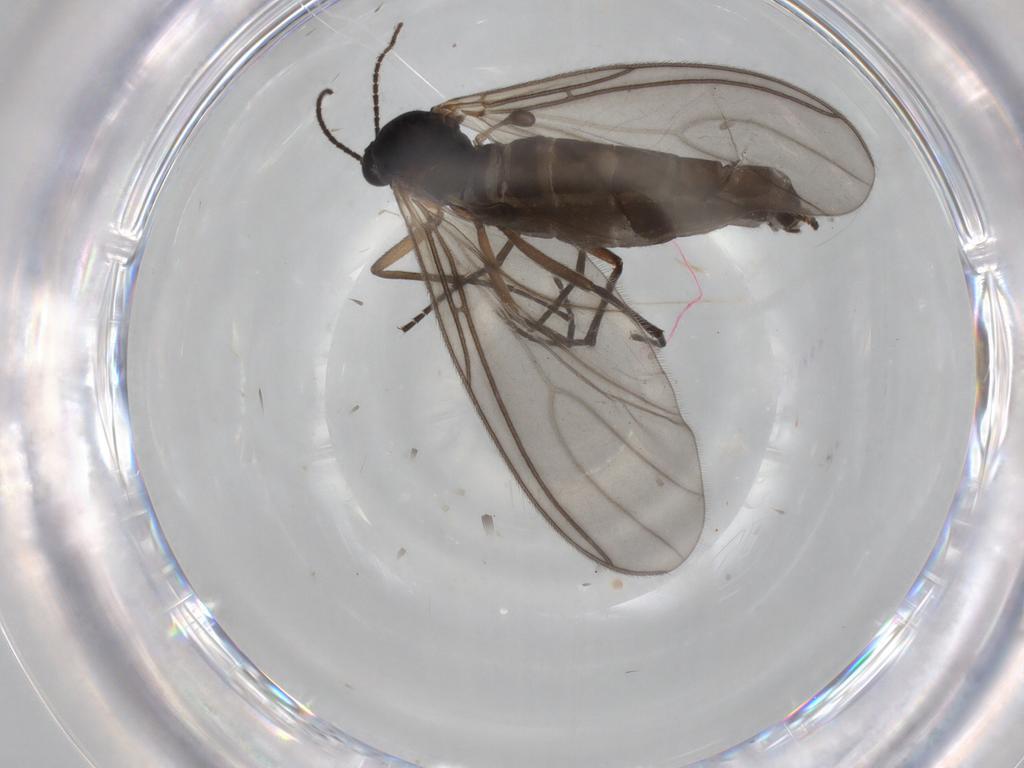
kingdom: Animalia
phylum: Arthropoda
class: Insecta
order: Diptera
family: Sciaridae
